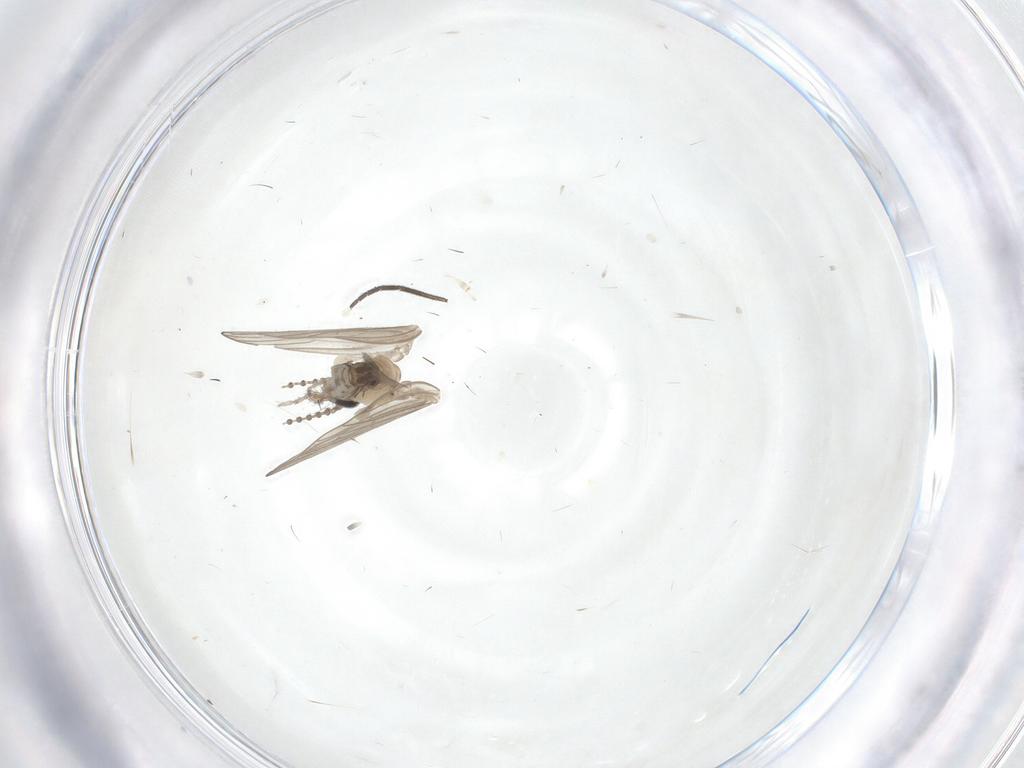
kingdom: Animalia
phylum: Arthropoda
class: Insecta
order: Diptera
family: Psychodidae
